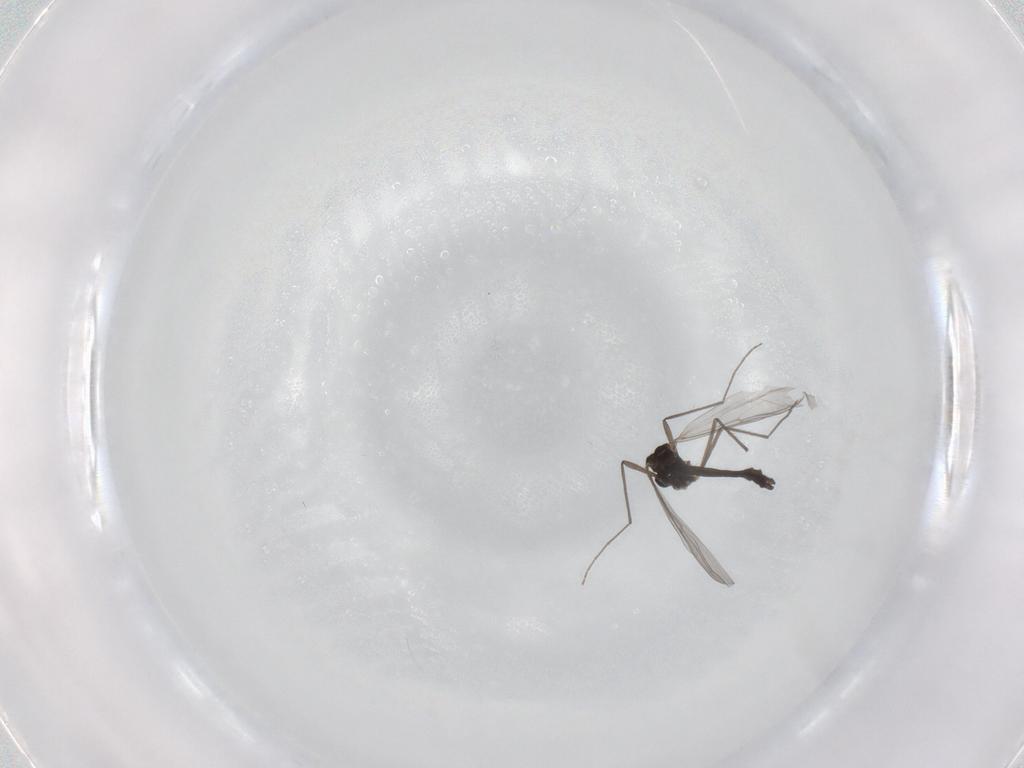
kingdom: Animalia
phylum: Arthropoda
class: Insecta
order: Diptera
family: Chironomidae
